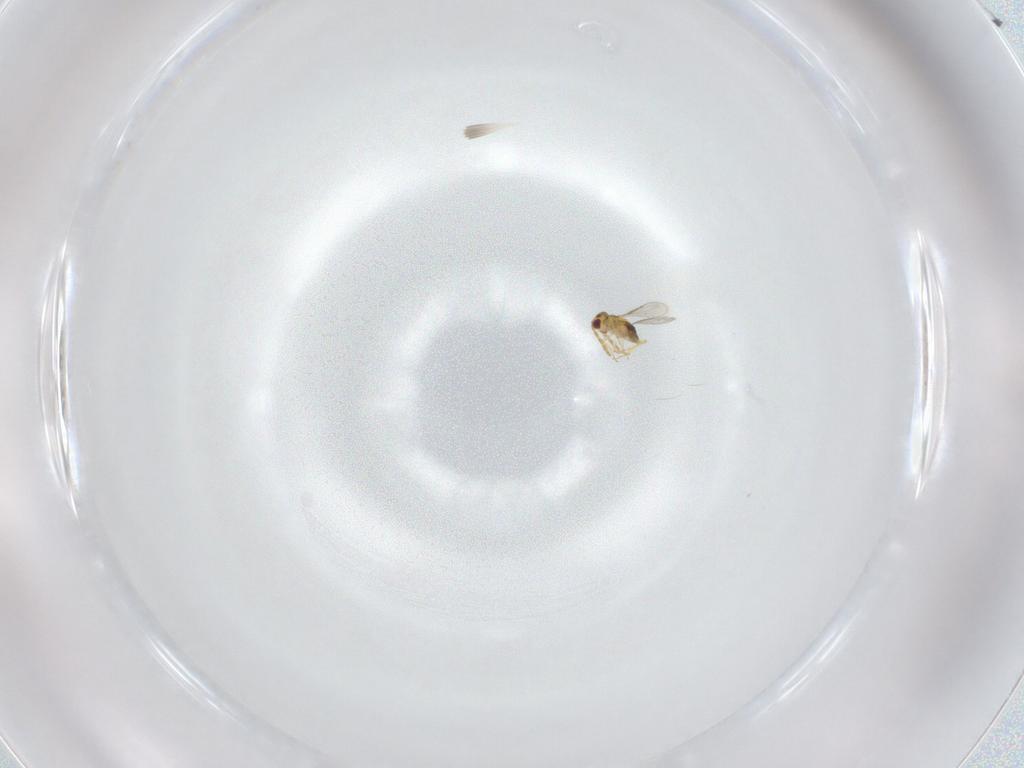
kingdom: Animalia
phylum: Arthropoda
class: Insecta
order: Hymenoptera
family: Aphelinidae
